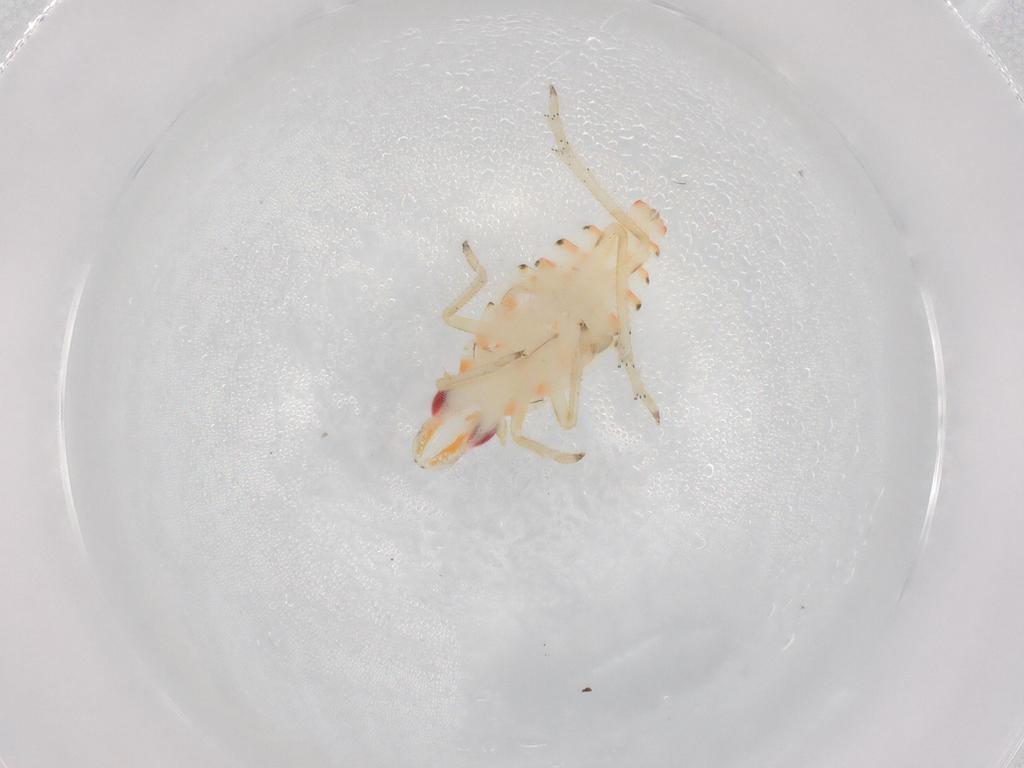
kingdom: Animalia
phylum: Arthropoda
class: Insecta
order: Hemiptera
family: Tropiduchidae
